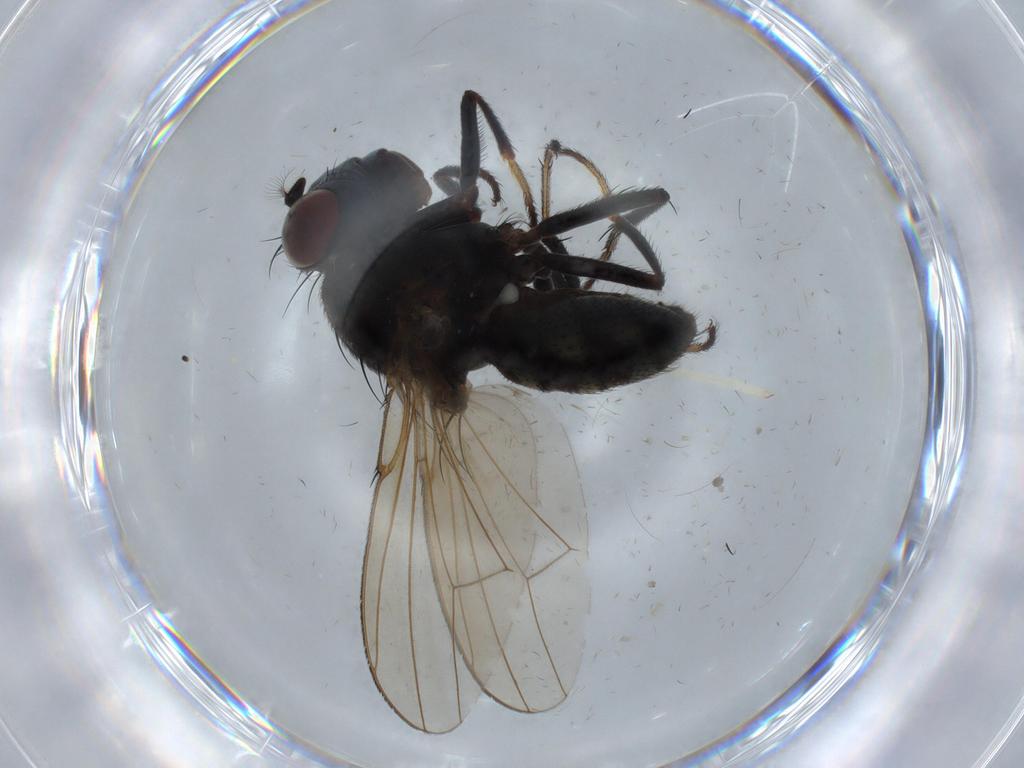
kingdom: Animalia
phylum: Arthropoda
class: Insecta
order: Diptera
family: Ephydridae
